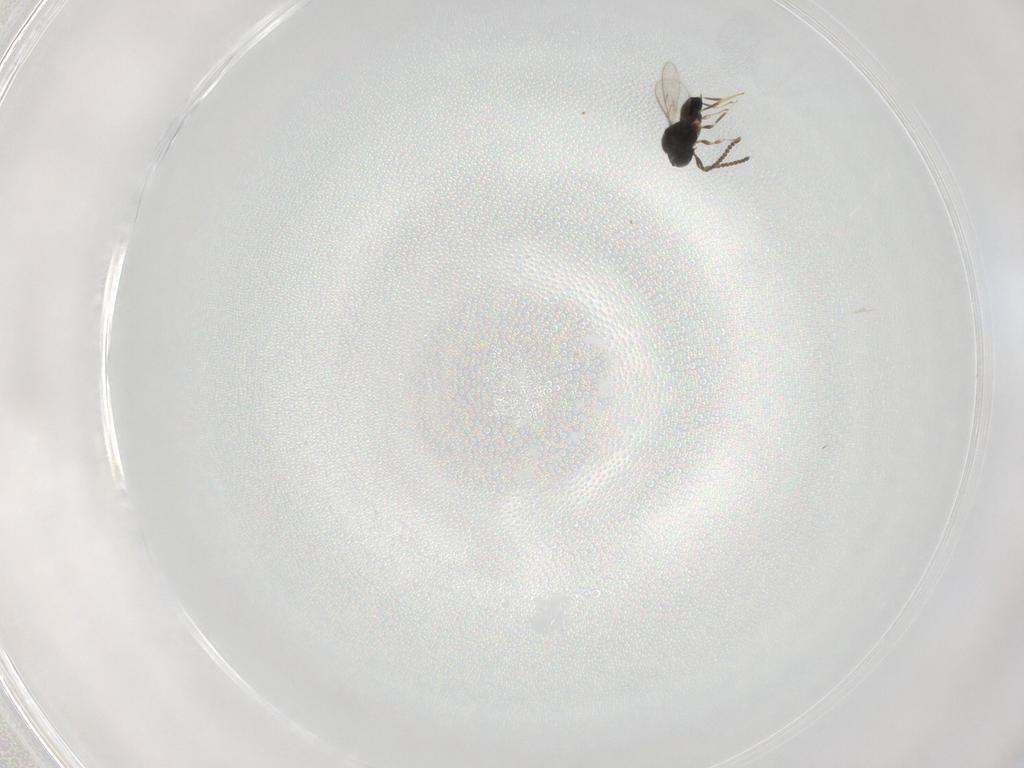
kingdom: Animalia
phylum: Arthropoda
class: Insecta
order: Hymenoptera
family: Scelionidae
